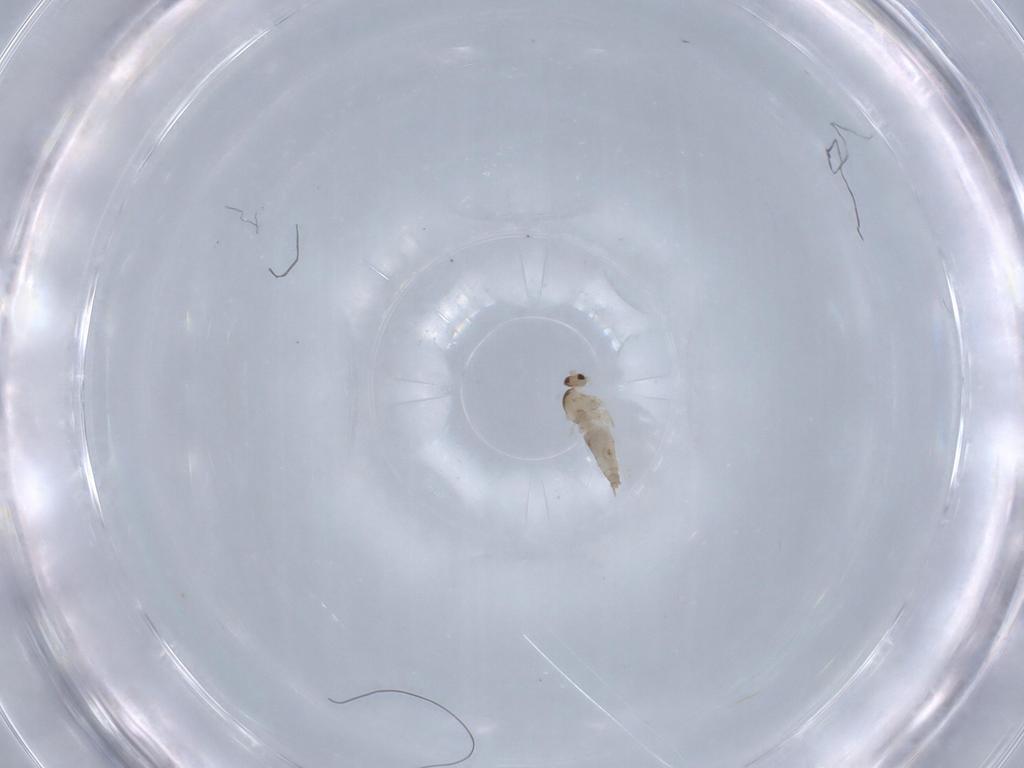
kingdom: Animalia
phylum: Arthropoda
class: Insecta
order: Diptera
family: Cecidomyiidae
